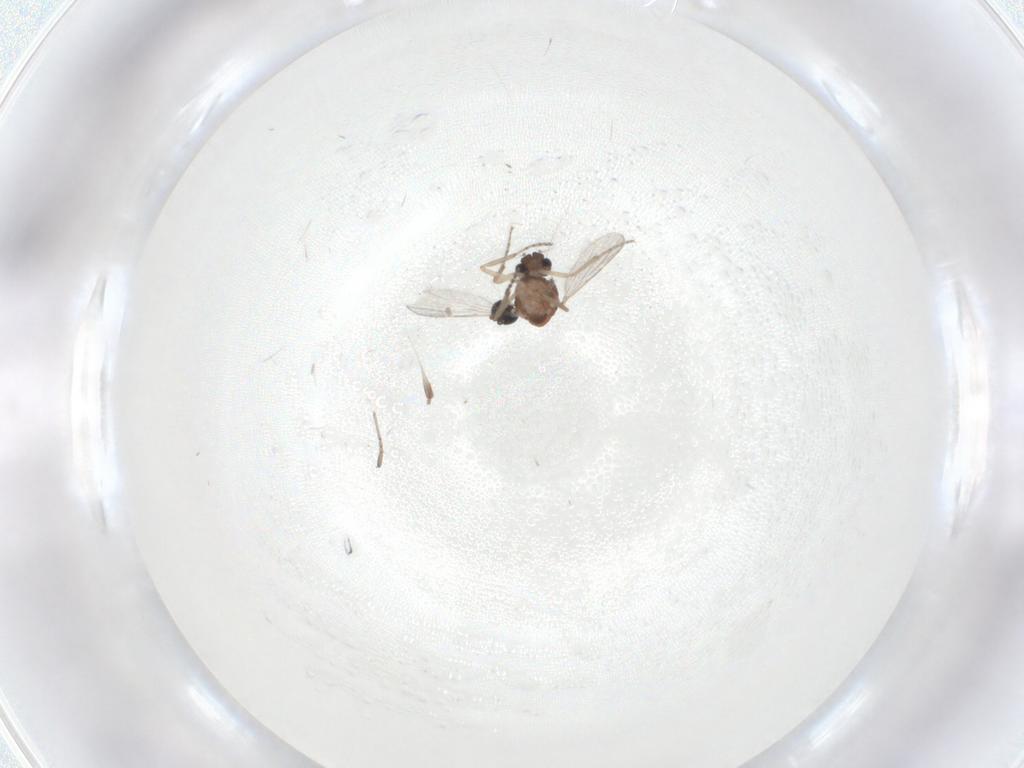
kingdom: Animalia
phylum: Arthropoda
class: Insecta
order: Diptera
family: Ceratopogonidae
